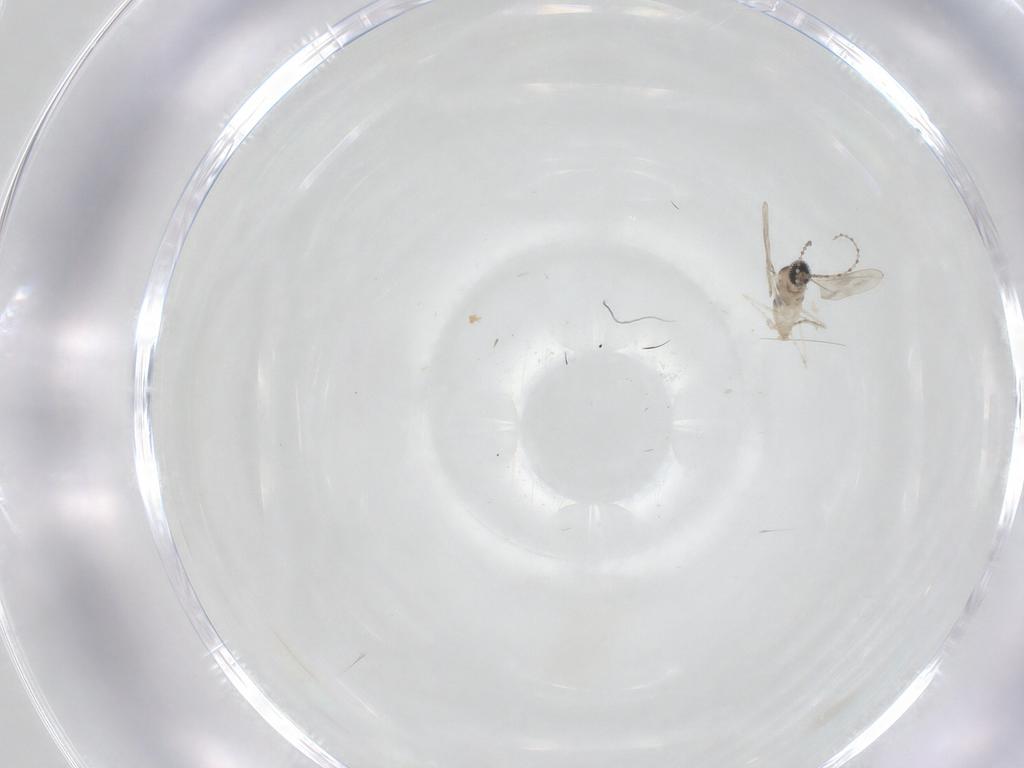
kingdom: Animalia
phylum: Arthropoda
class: Insecta
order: Diptera
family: Cecidomyiidae
